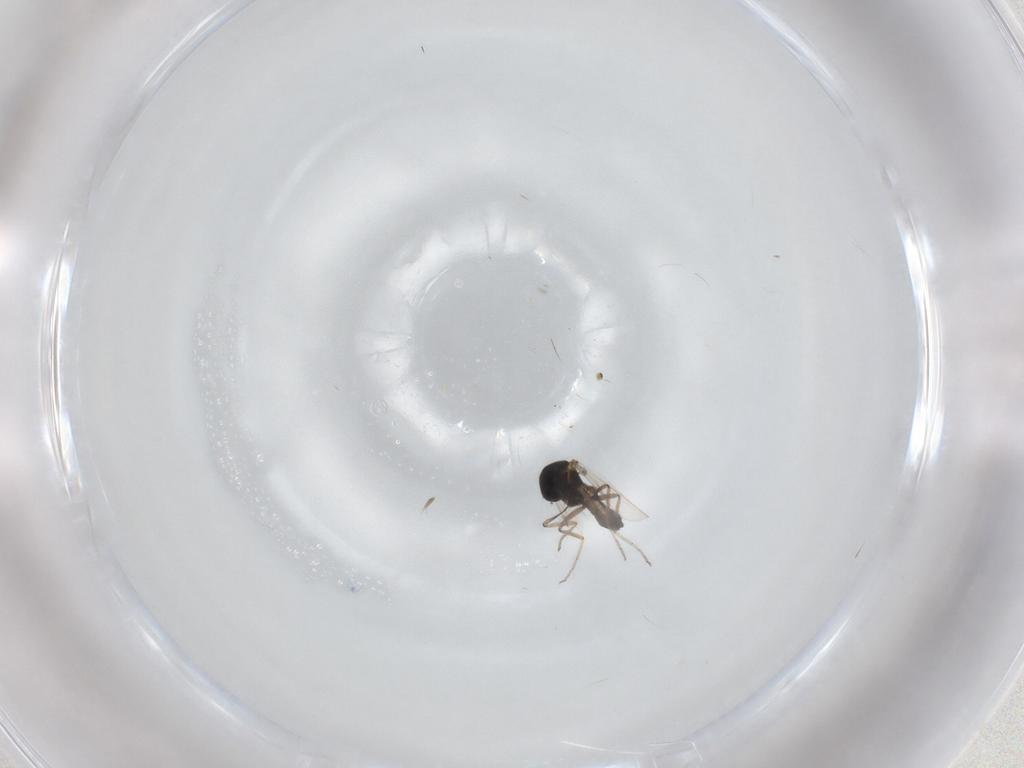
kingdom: Animalia
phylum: Arthropoda
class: Insecta
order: Diptera
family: Ceratopogonidae
